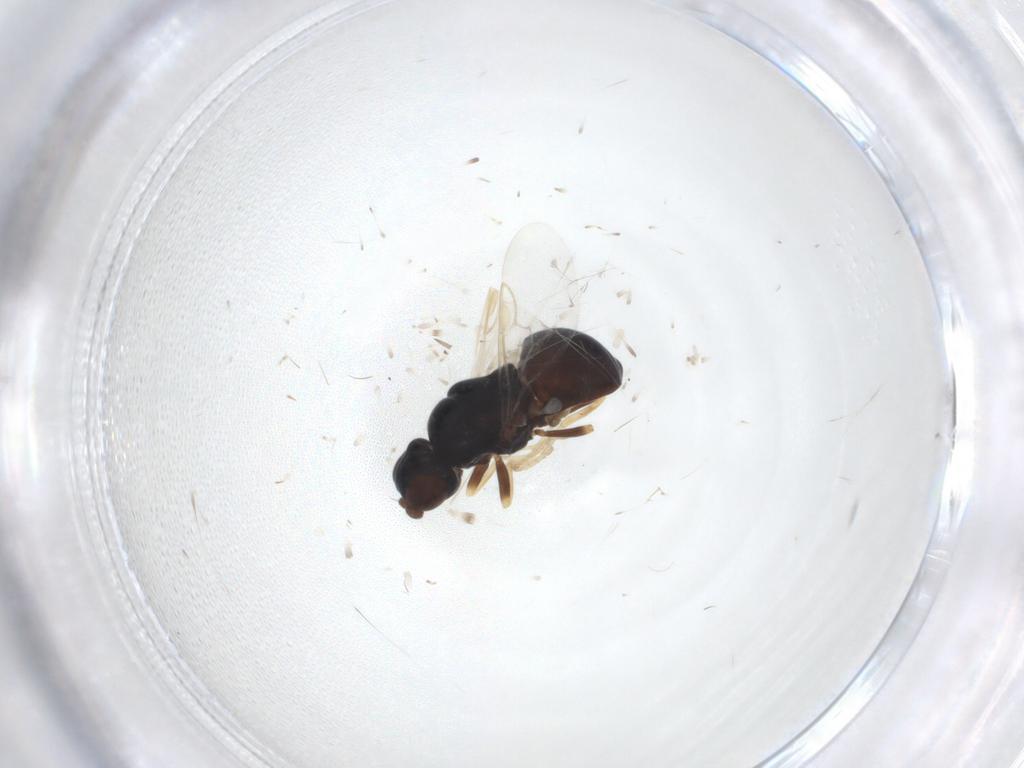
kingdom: Animalia
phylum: Arthropoda
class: Insecta
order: Diptera
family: Stratiomyidae
